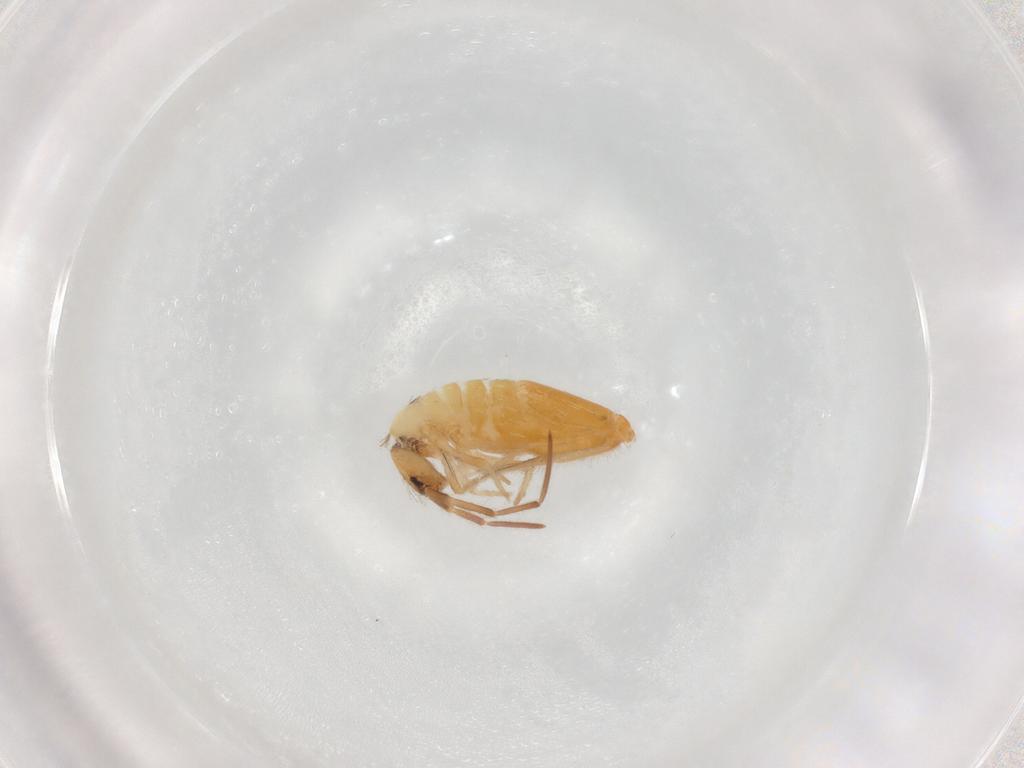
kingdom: Animalia
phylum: Arthropoda
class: Collembola
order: Entomobryomorpha
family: Entomobryidae
